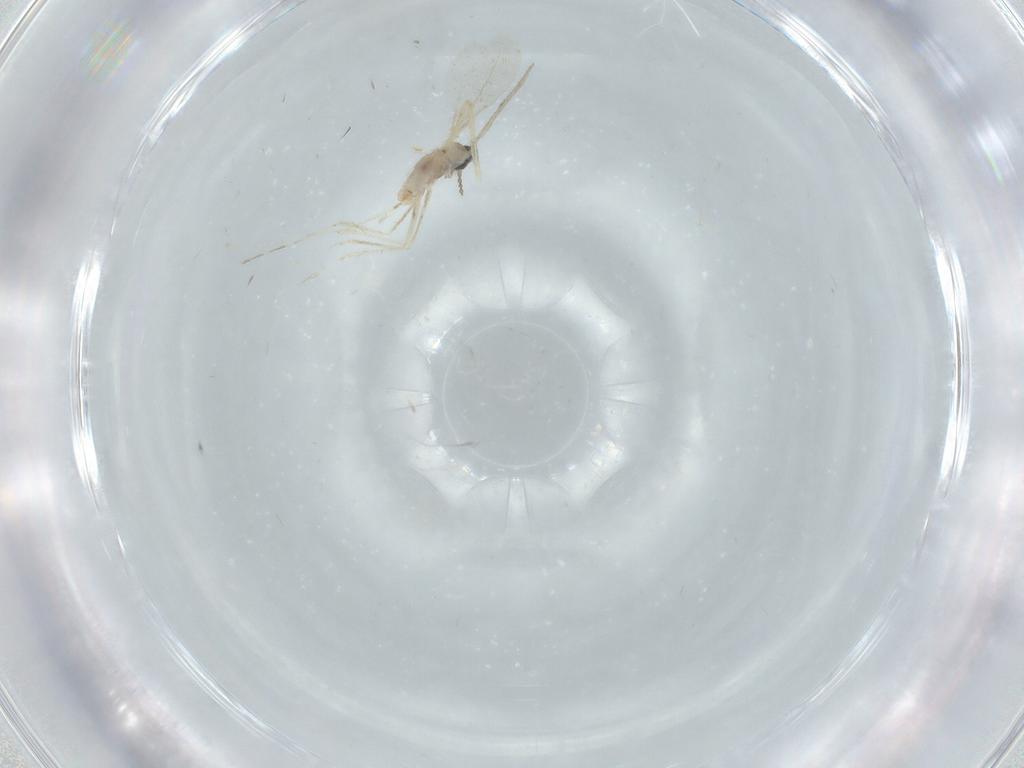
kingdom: Animalia
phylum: Arthropoda
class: Insecta
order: Diptera
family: Cecidomyiidae
